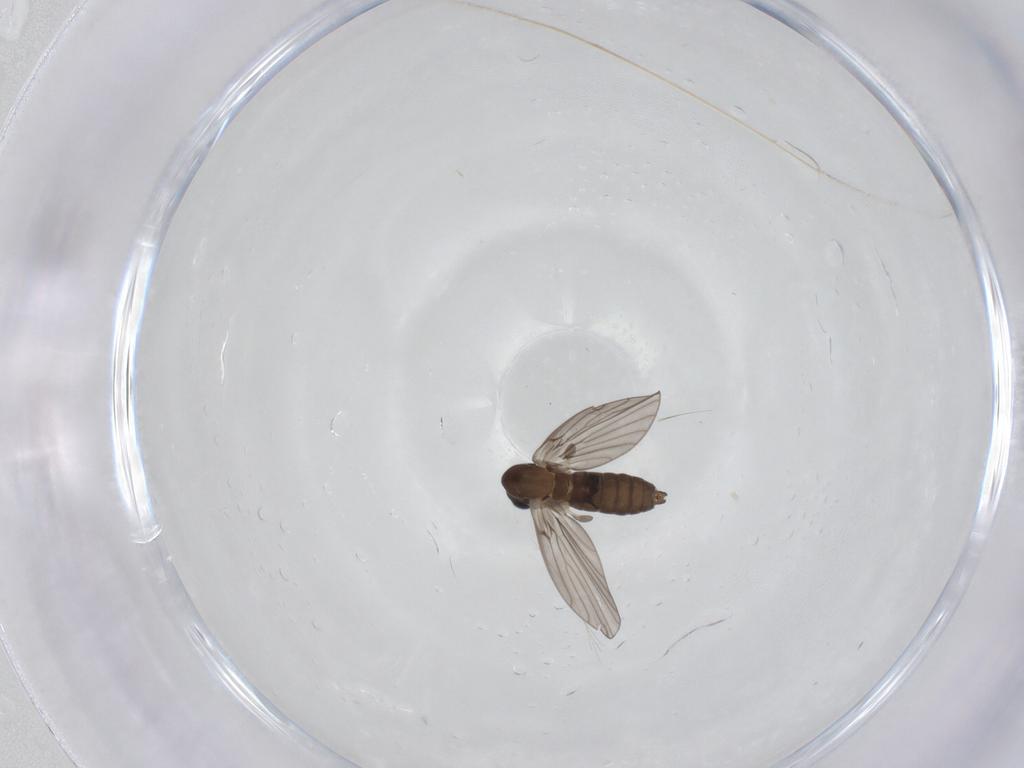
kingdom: Animalia
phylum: Arthropoda
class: Insecta
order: Diptera
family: Psychodidae
